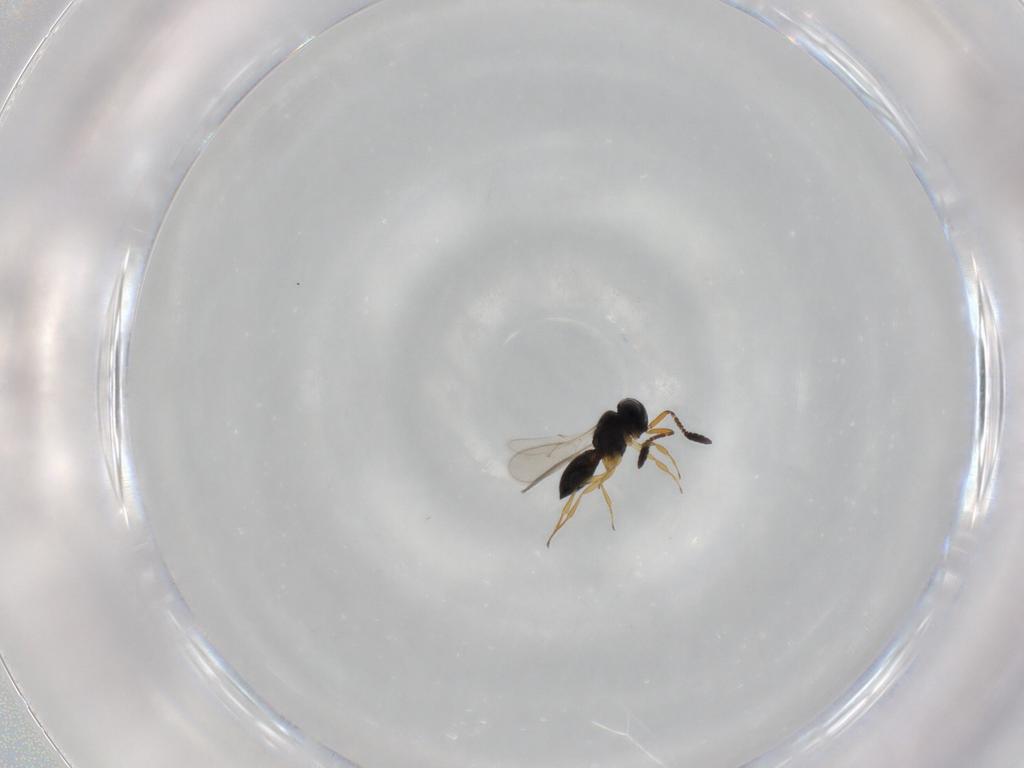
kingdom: Animalia
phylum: Arthropoda
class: Insecta
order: Hymenoptera
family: Scelionidae
